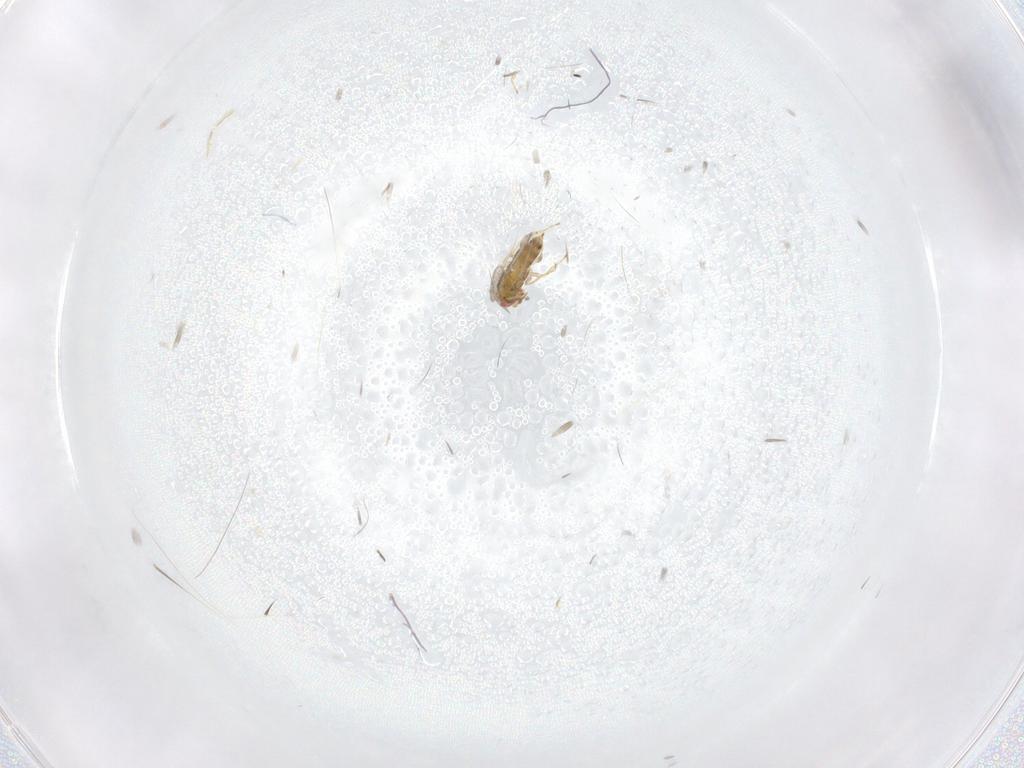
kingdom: Animalia
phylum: Arthropoda
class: Insecta
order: Hymenoptera
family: Trichogrammatidae
